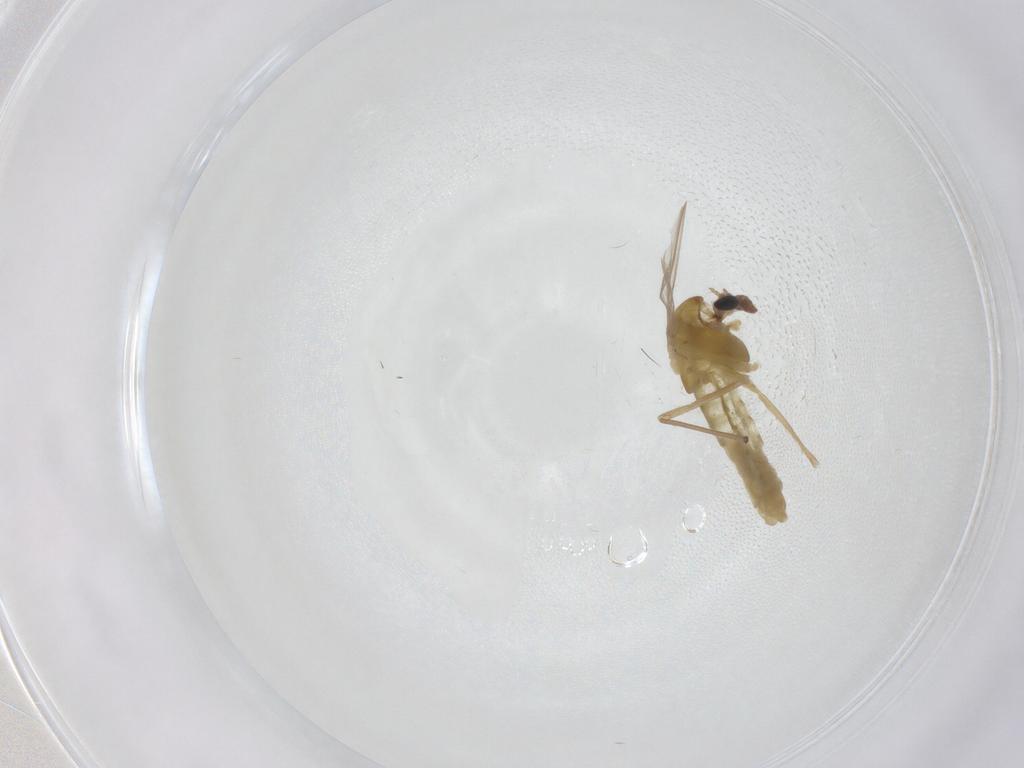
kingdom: Animalia
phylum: Arthropoda
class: Insecta
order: Diptera
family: Chironomidae
